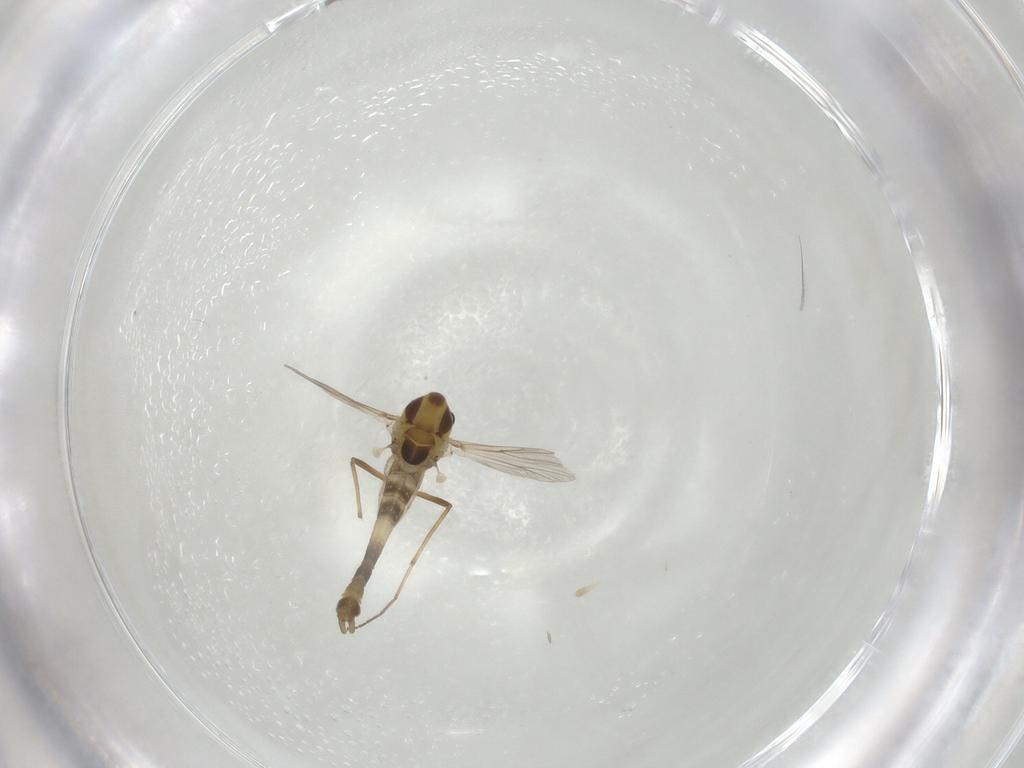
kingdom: Animalia
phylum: Arthropoda
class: Insecta
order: Diptera
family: Chironomidae
